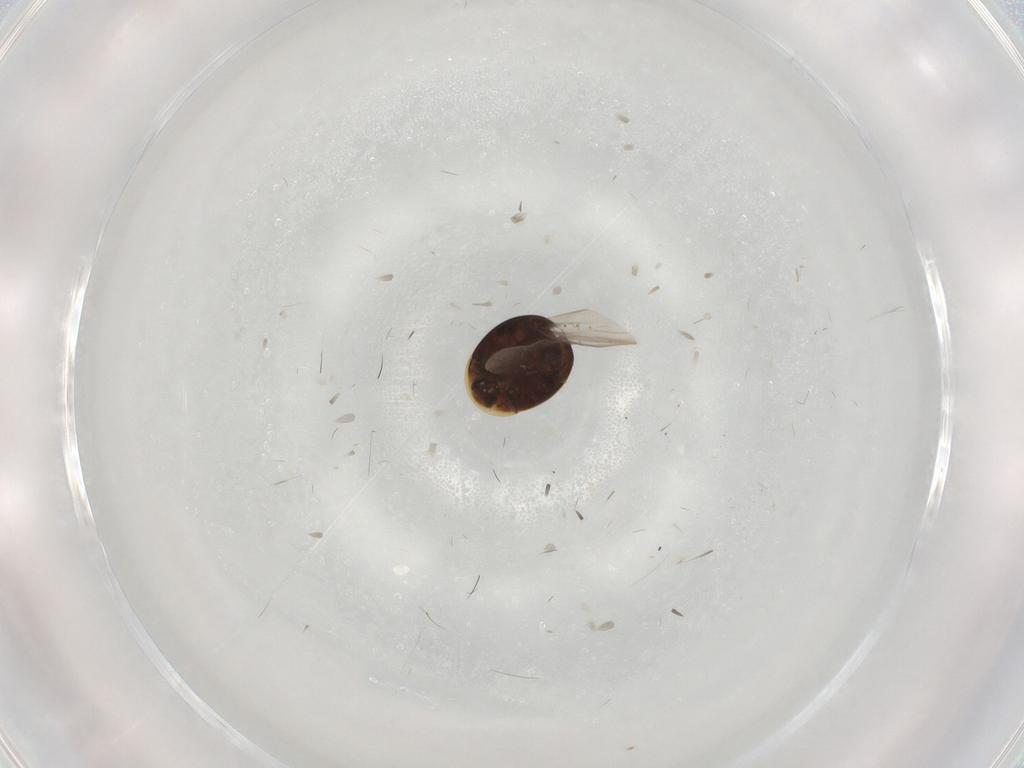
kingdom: Animalia
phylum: Arthropoda
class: Insecta
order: Coleoptera
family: Corylophidae
